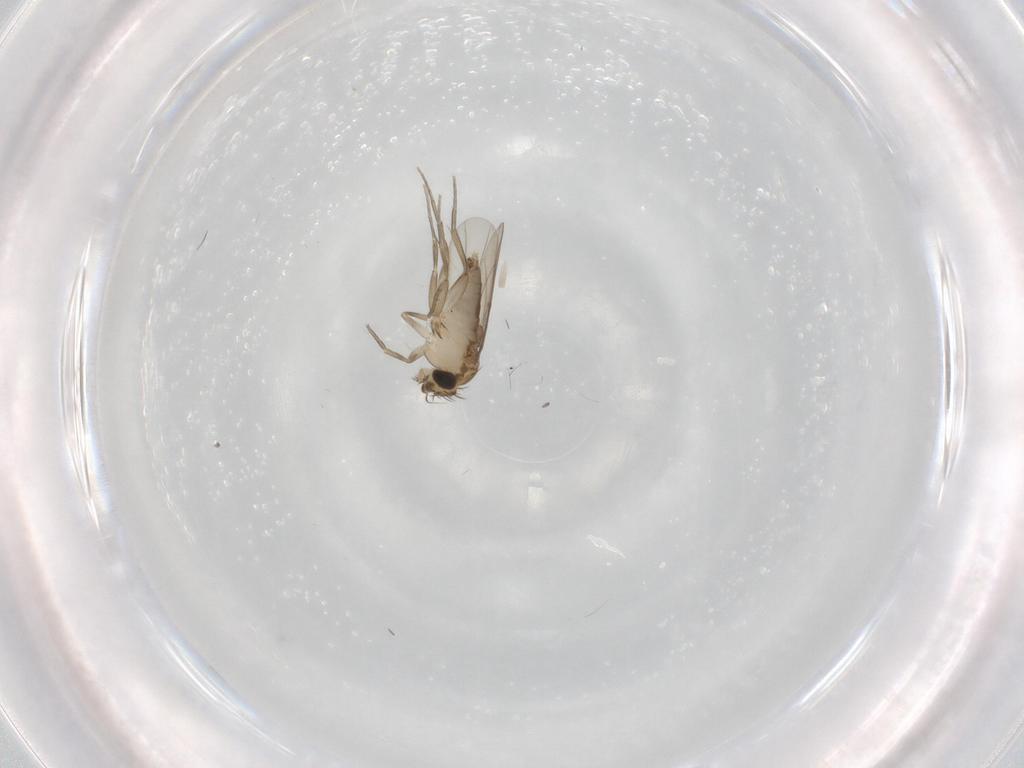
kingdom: Animalia
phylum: Arthropoda
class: Insecta
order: Diptera
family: Phoridae
